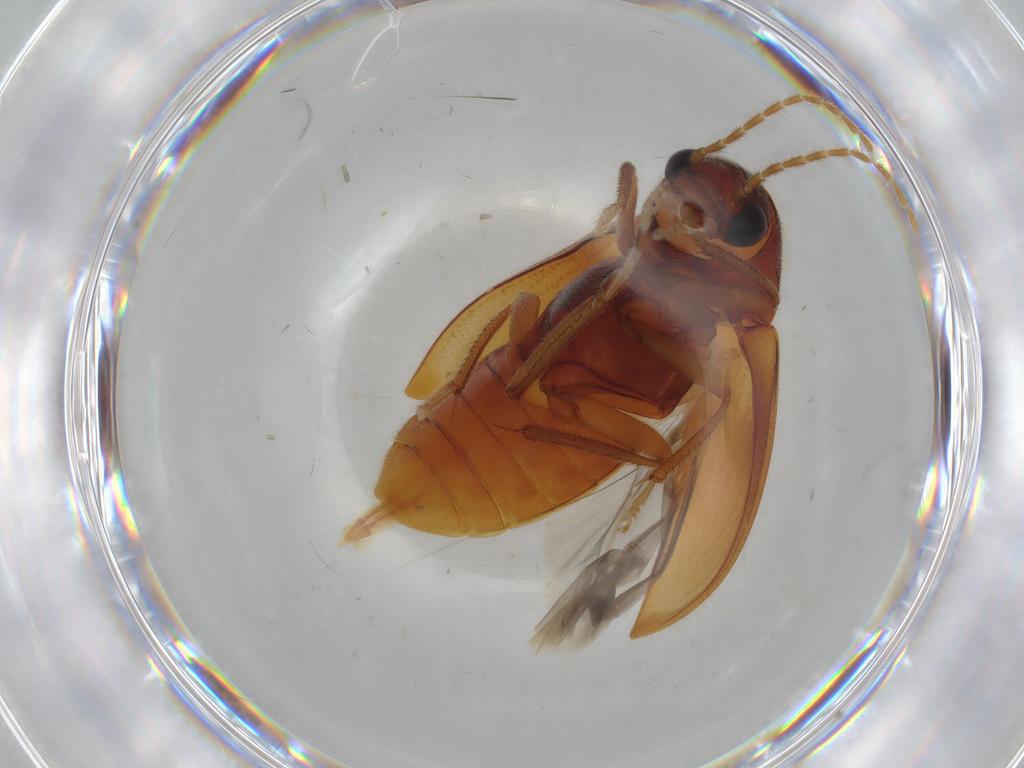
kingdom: Animalia
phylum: Arthropoda
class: Insecta
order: Coleoptera
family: Ptilodactylidae
